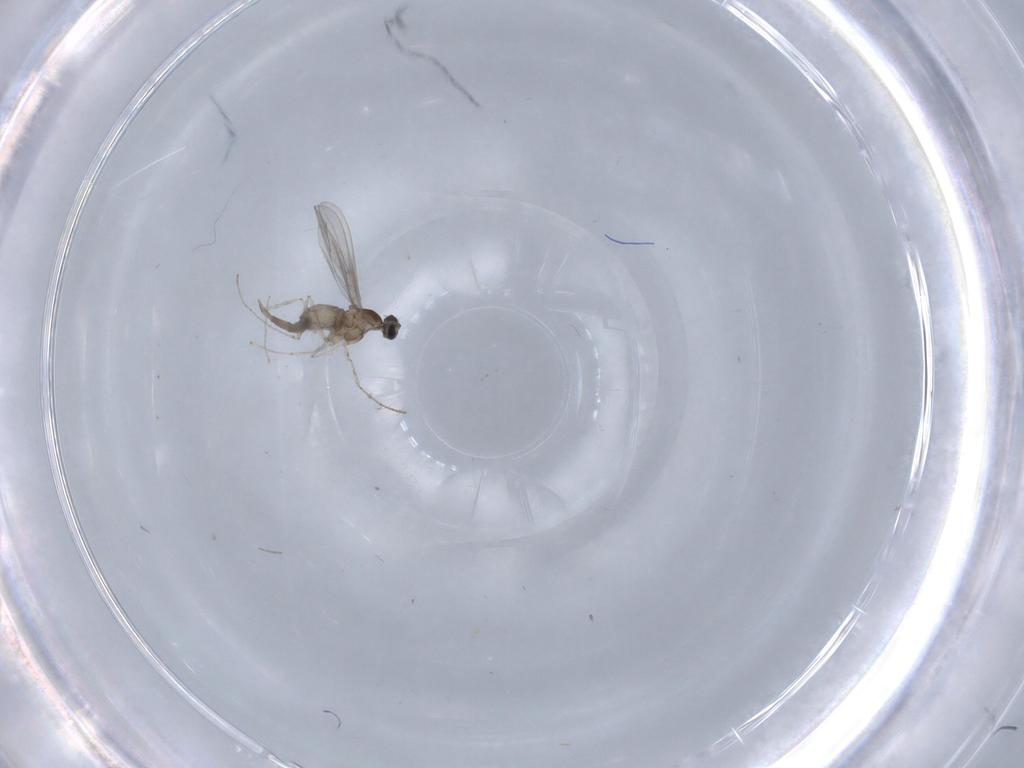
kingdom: Animalia
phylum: Arthropoda
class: Insecta
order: Diptera
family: Cecidomyiidae
